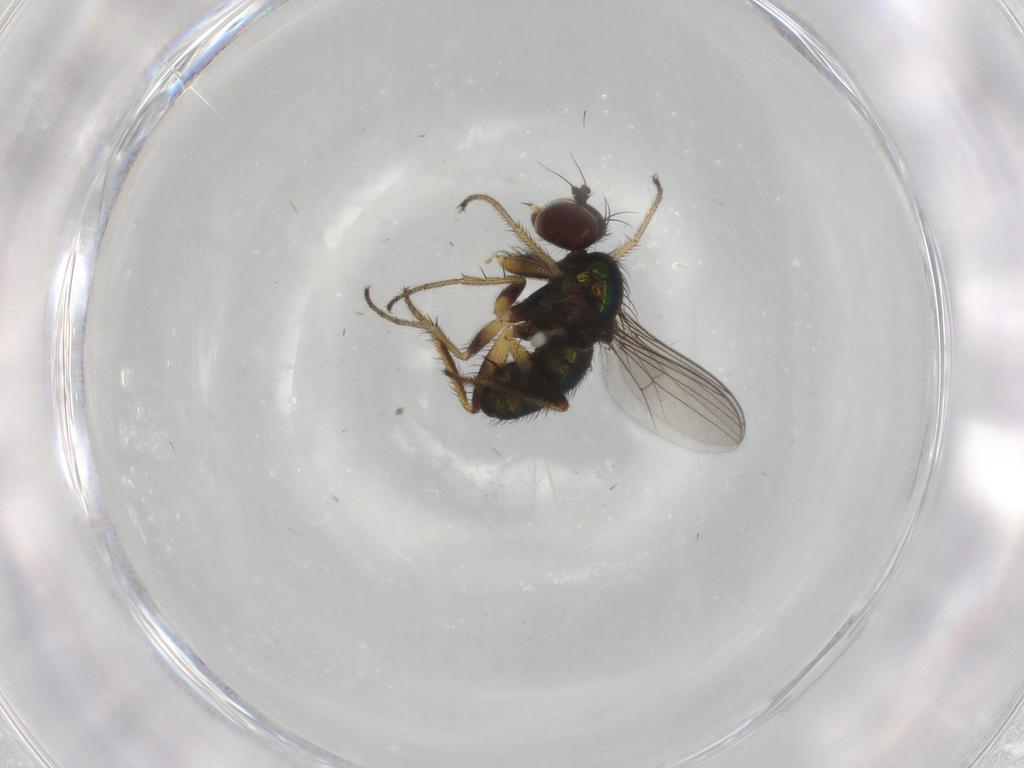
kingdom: Animalia
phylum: Arthropoda
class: Insecta
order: Diptera
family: Dolichopodidae
